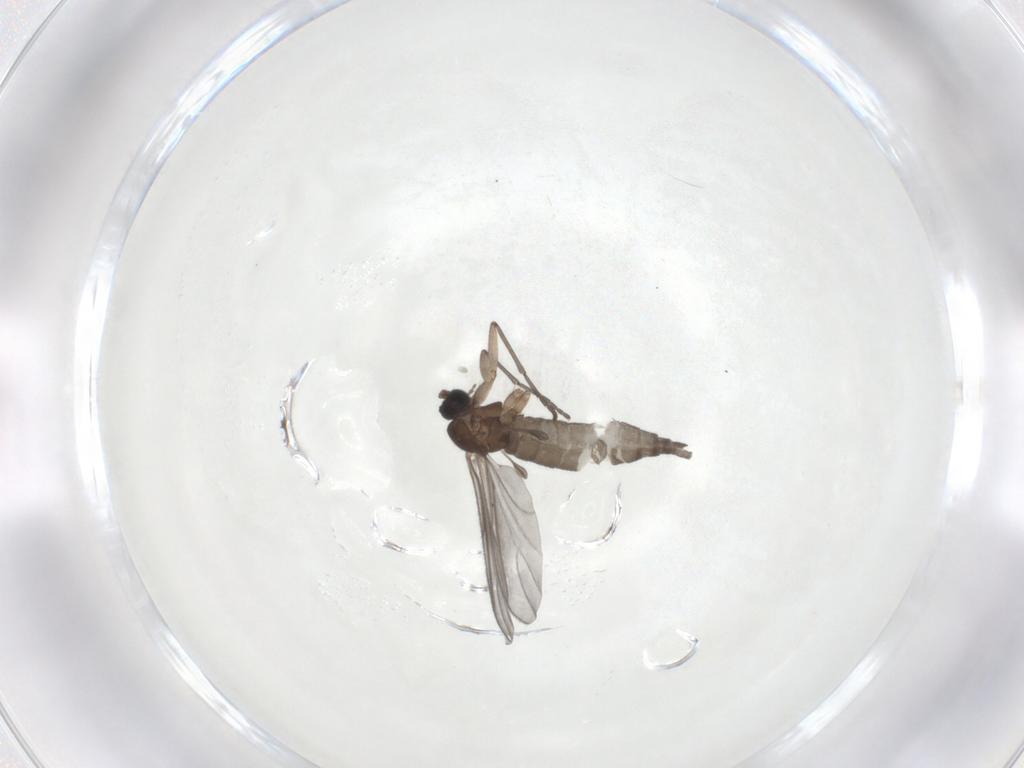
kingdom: Animalia
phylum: Arthropoda
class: Insecta
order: Diptera
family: Sciaridae
